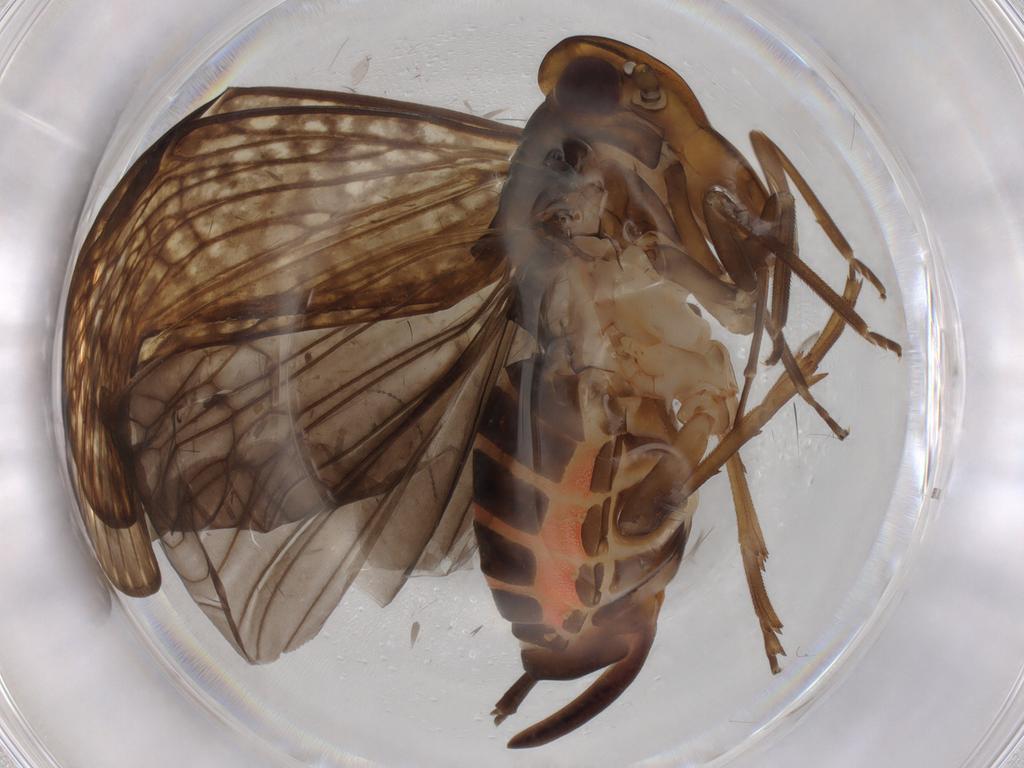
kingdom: Animalia
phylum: Arthropoda
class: Insecta
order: Hemiptera
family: Cixiidae
